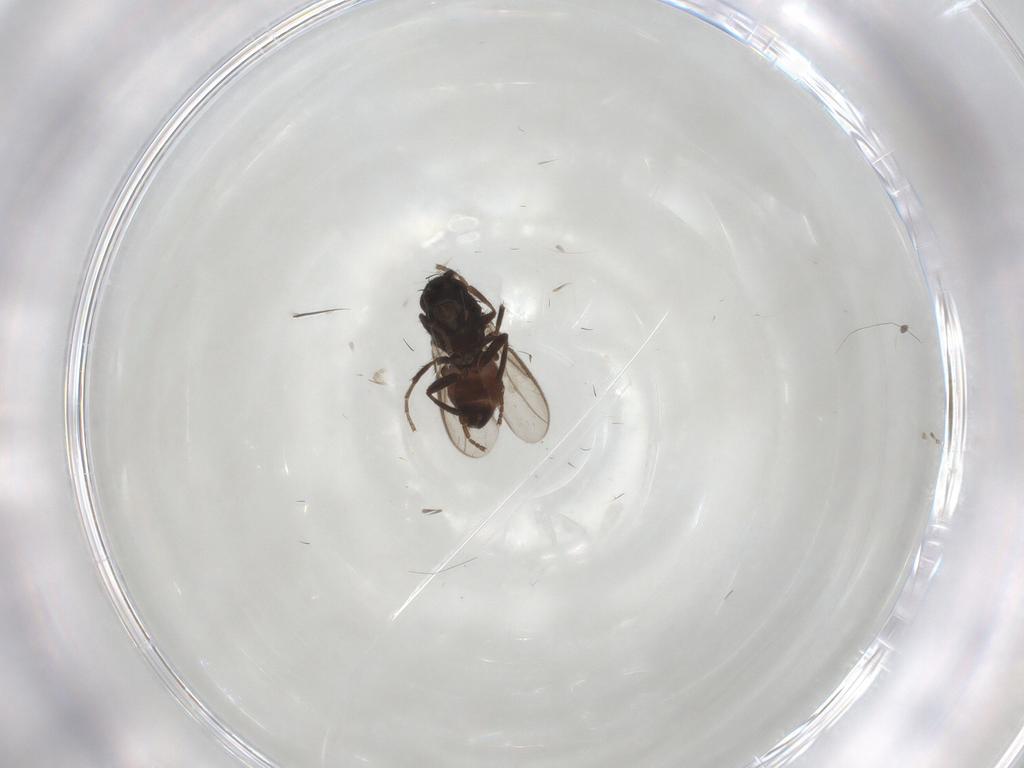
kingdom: Animalia
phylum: Arthropoda
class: Insecta
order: Diptera
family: Sphaeroceridae
